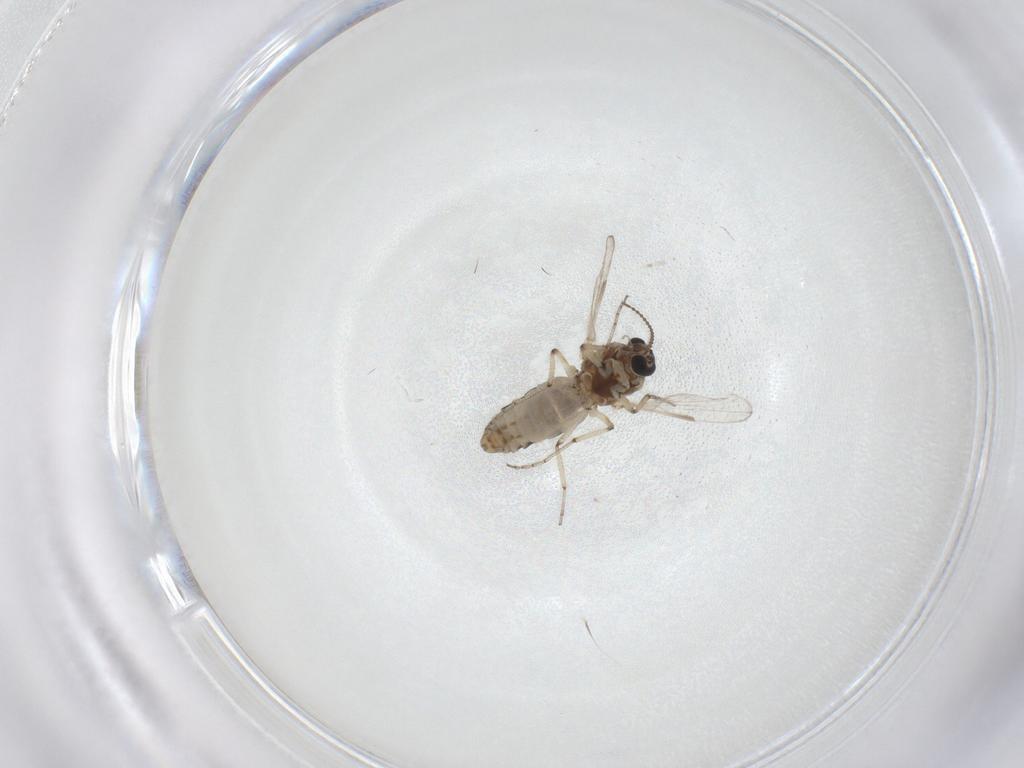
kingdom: Animalia
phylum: Arthropoda
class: Insecta
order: Diptera
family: Ceratopogonidae
